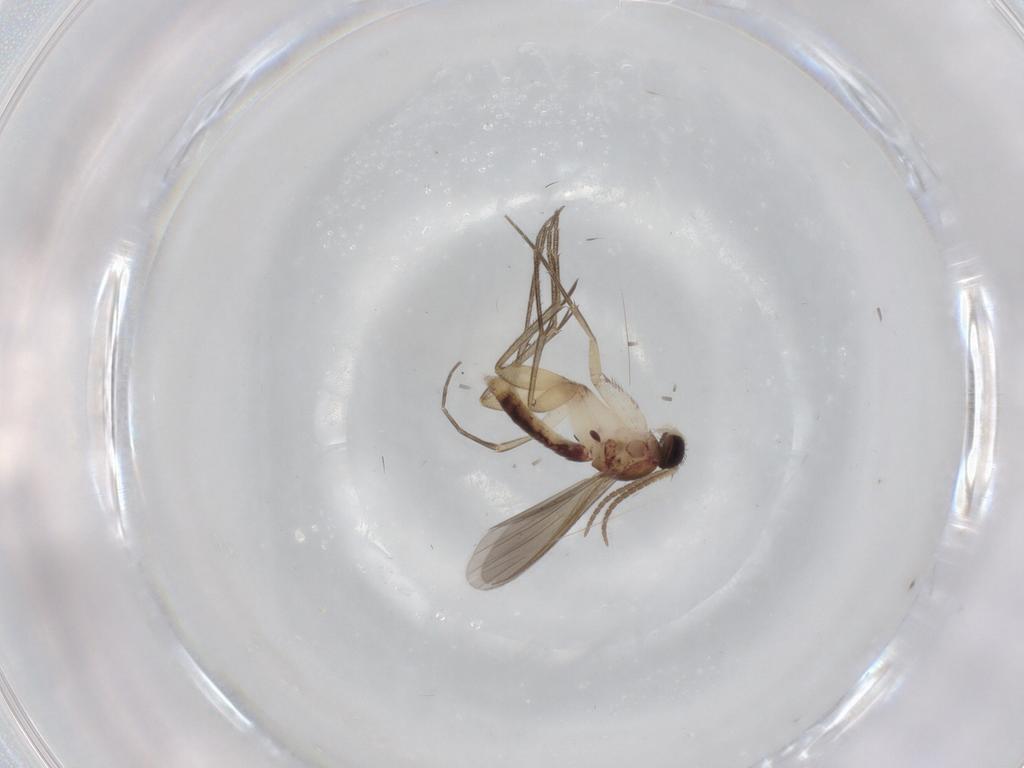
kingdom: Animalia
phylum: Arthropoda
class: Insecta
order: Diptera
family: Mycetophilidae
